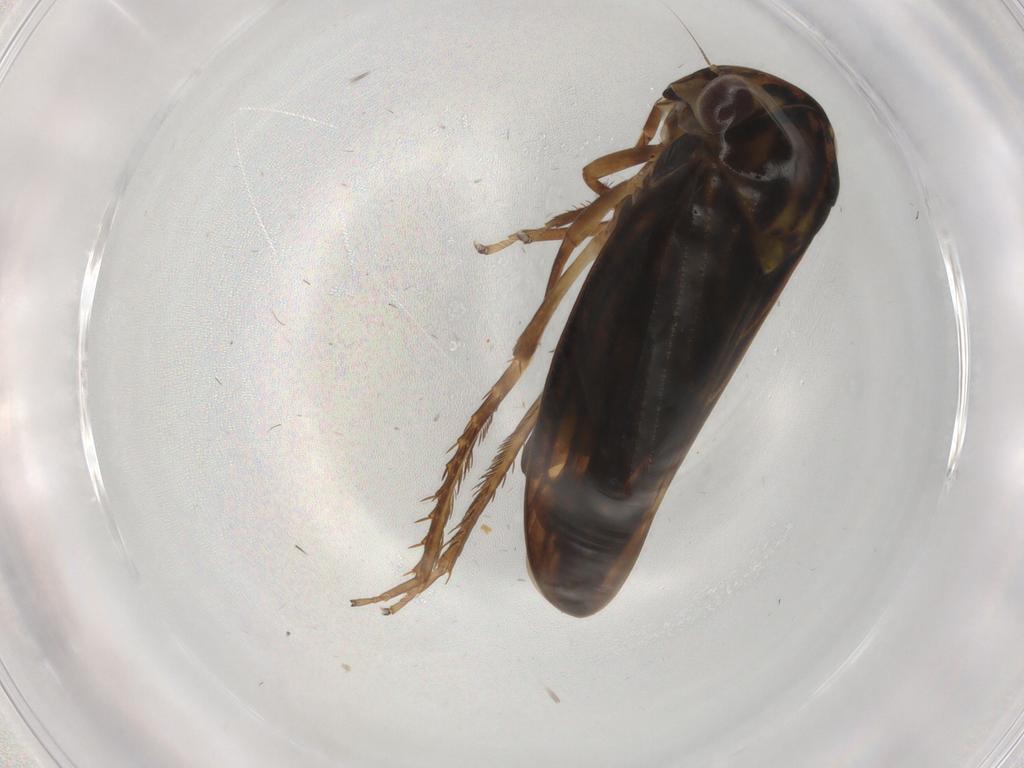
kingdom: Animalia
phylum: Arthropoda
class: Insecta
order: Hemiptera
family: Cicadellidae
